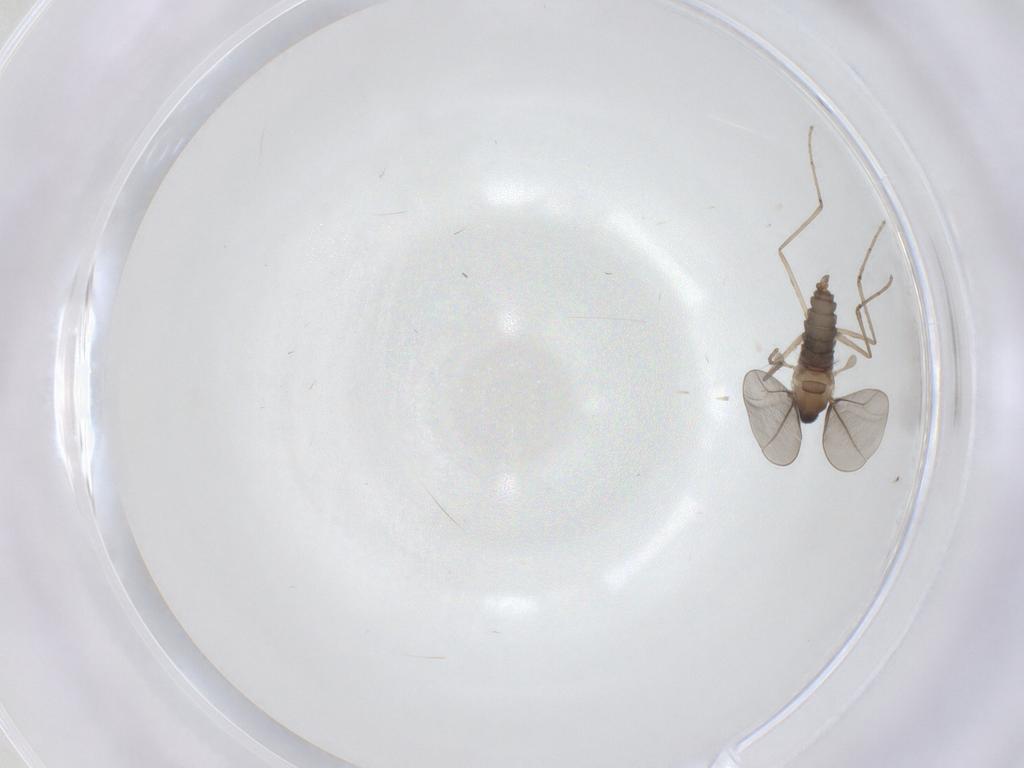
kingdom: Animalia
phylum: Arthropoda
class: Insecta
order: Diptera
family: Cecidomyiidae
